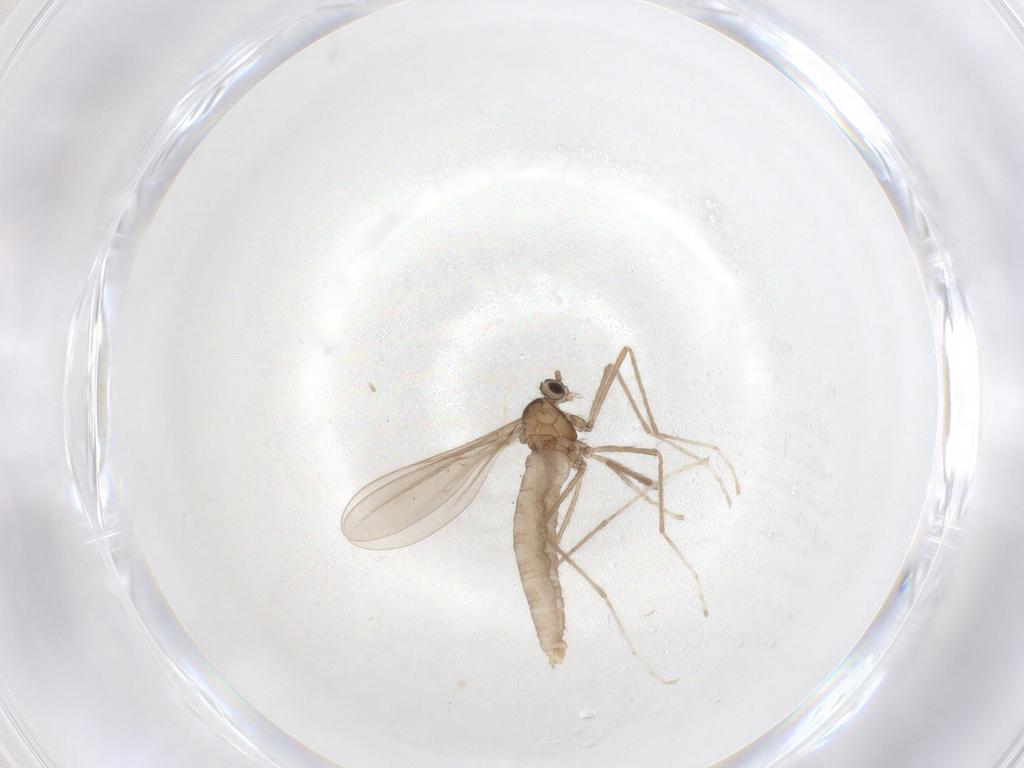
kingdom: Animalia
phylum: Arthropoda
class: Insecta
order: Diptera
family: Cecidomyiidae
